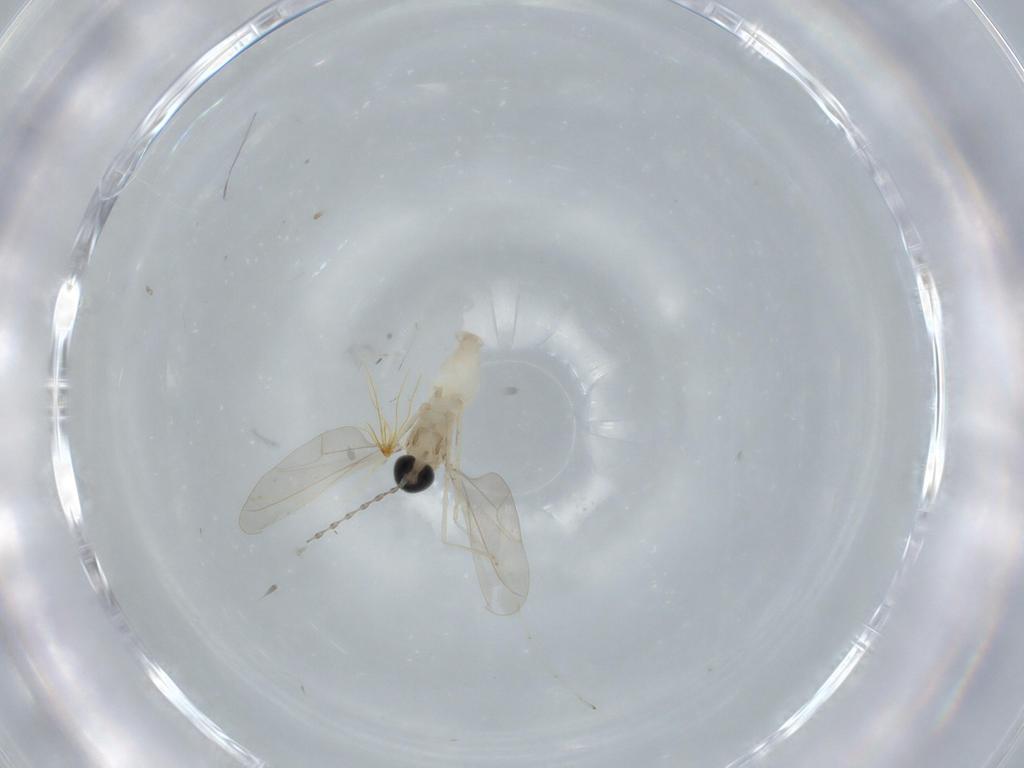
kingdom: Animalia
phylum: Arthropoda
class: Insecta
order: Diptera
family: Cecidomyiidae
